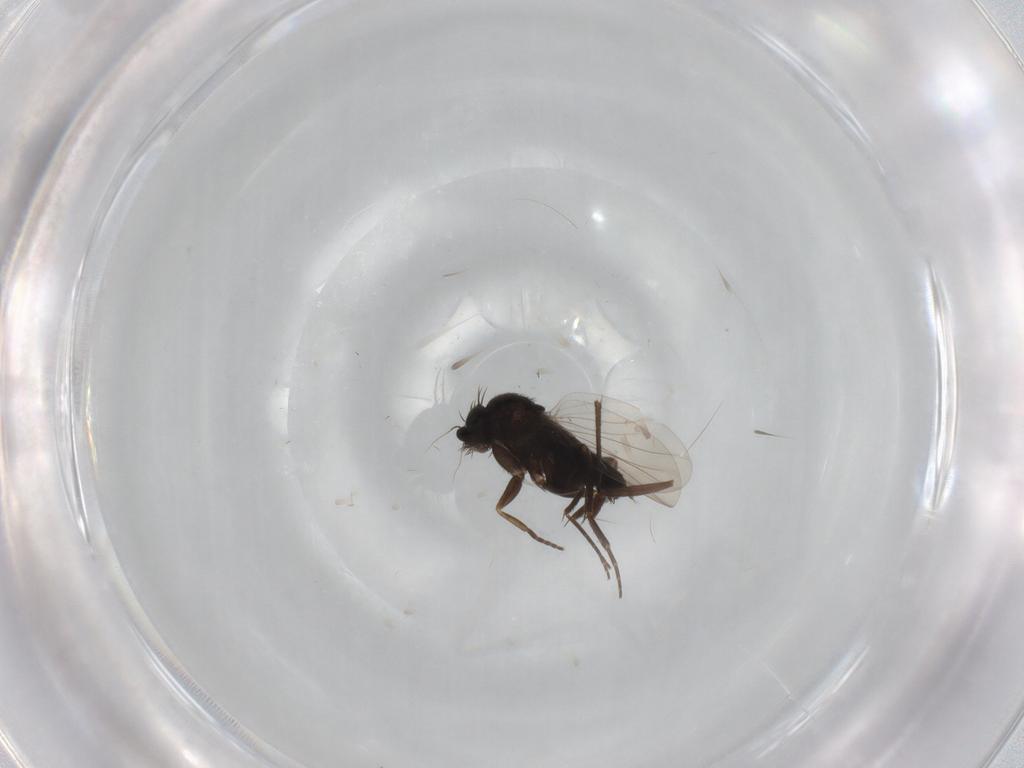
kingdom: Animalia
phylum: Arthropoda
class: Insecta
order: Diptera
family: Phoridae
